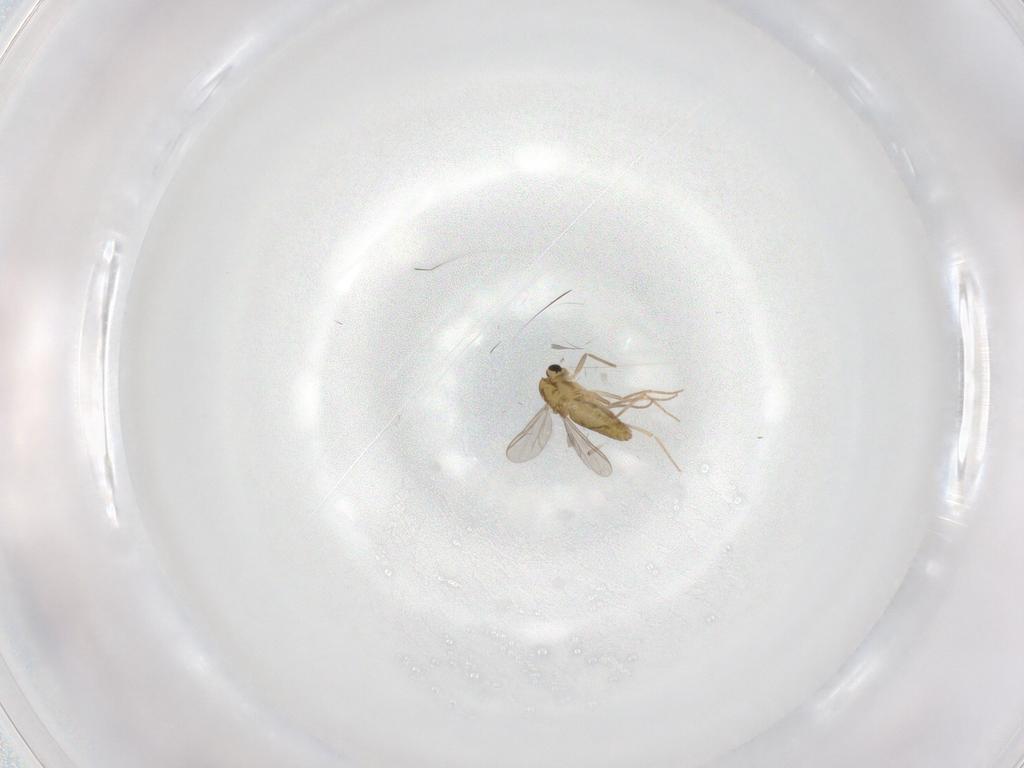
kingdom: Animalia
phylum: Arthropoda
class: Insecta
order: Diptera
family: Chironomidae
